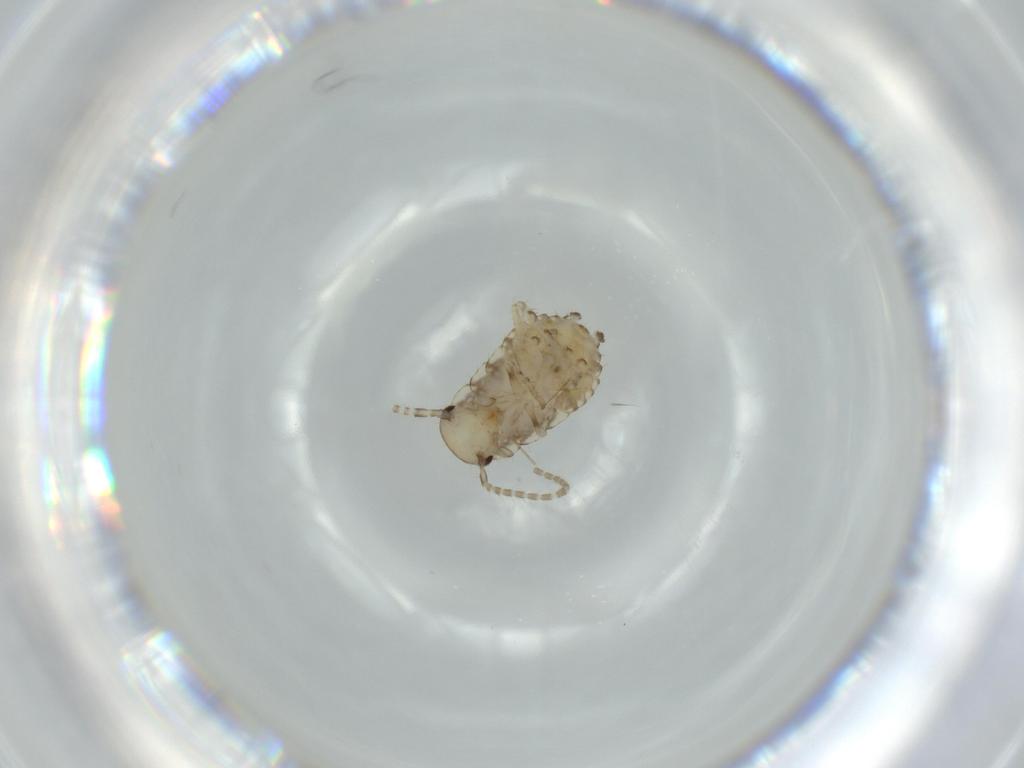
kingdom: Animalia
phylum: Arthropoda
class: Insecta
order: Blattodea
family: Ectobiidae
